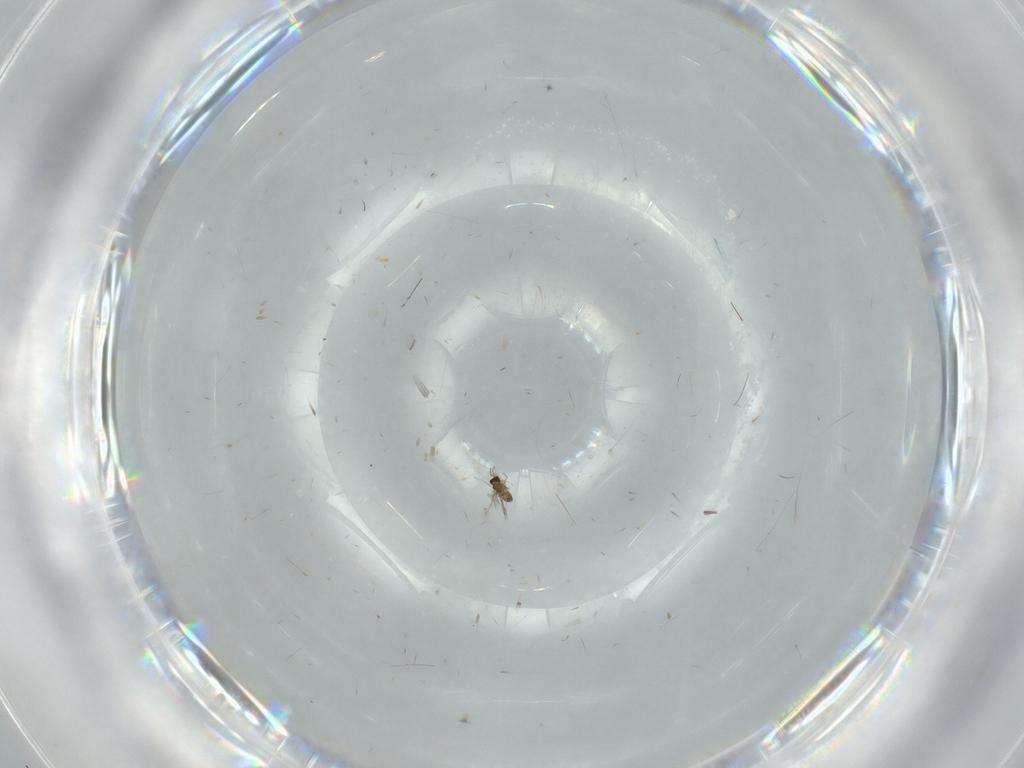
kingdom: Animalia
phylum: Arthropoda
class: Insecta
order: Hymenoptera
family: Mymaridae
